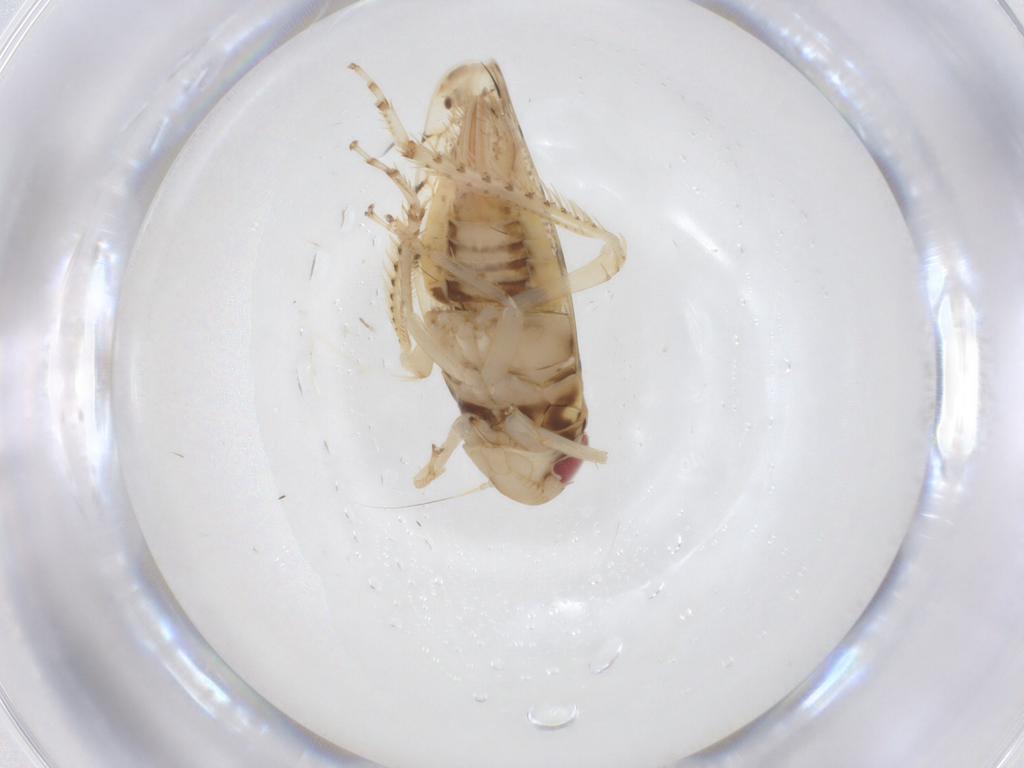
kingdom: Animalia
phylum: Arthropoda
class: Insecta
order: Hemiptera
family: Cicadellidae
